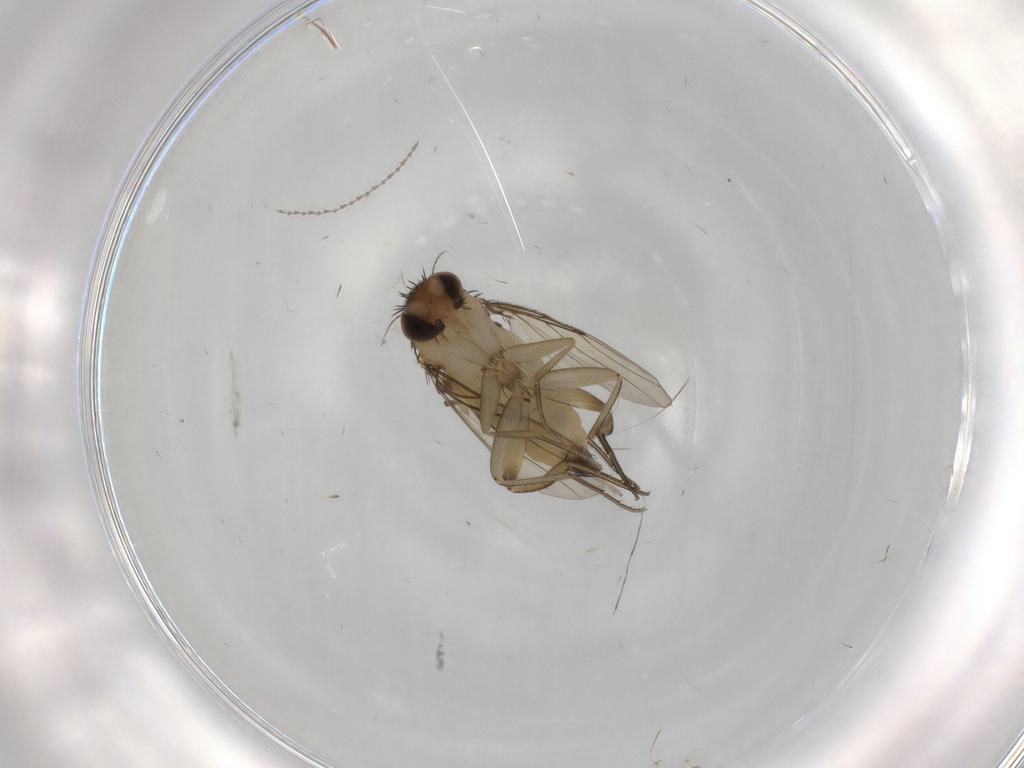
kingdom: Animalia
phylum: Arthropoda
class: Insecta
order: Diptera
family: Phoridae
